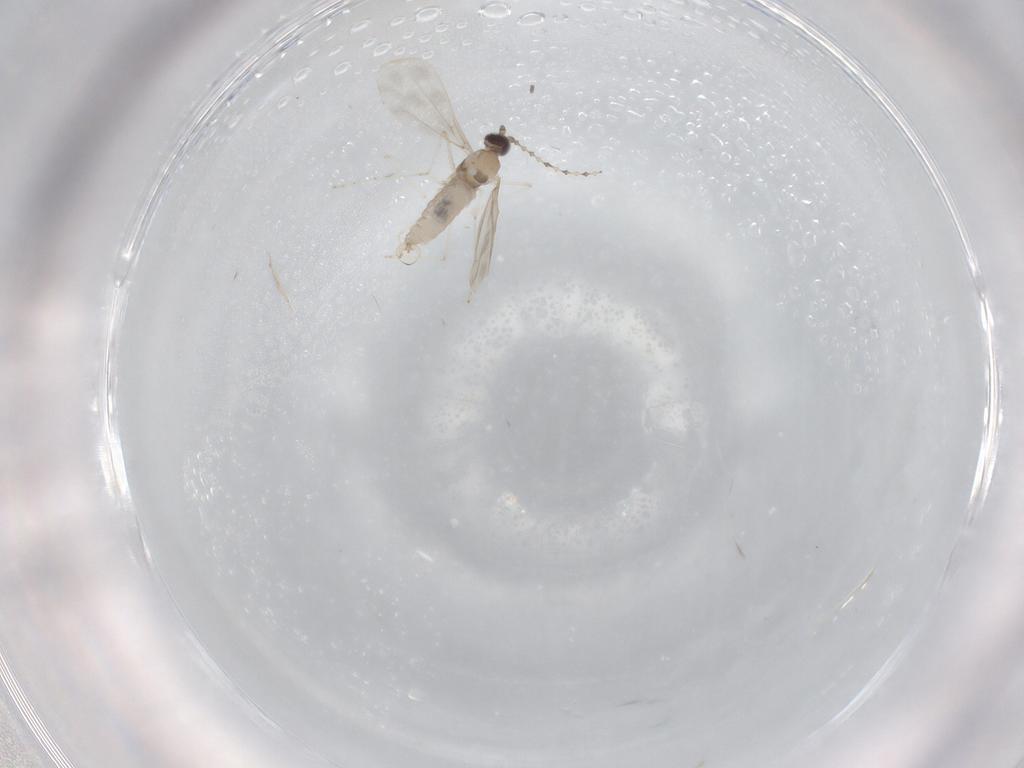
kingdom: Animalia
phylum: Arthropoda
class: Insecta
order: Diptera
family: Cecidomyiidae
